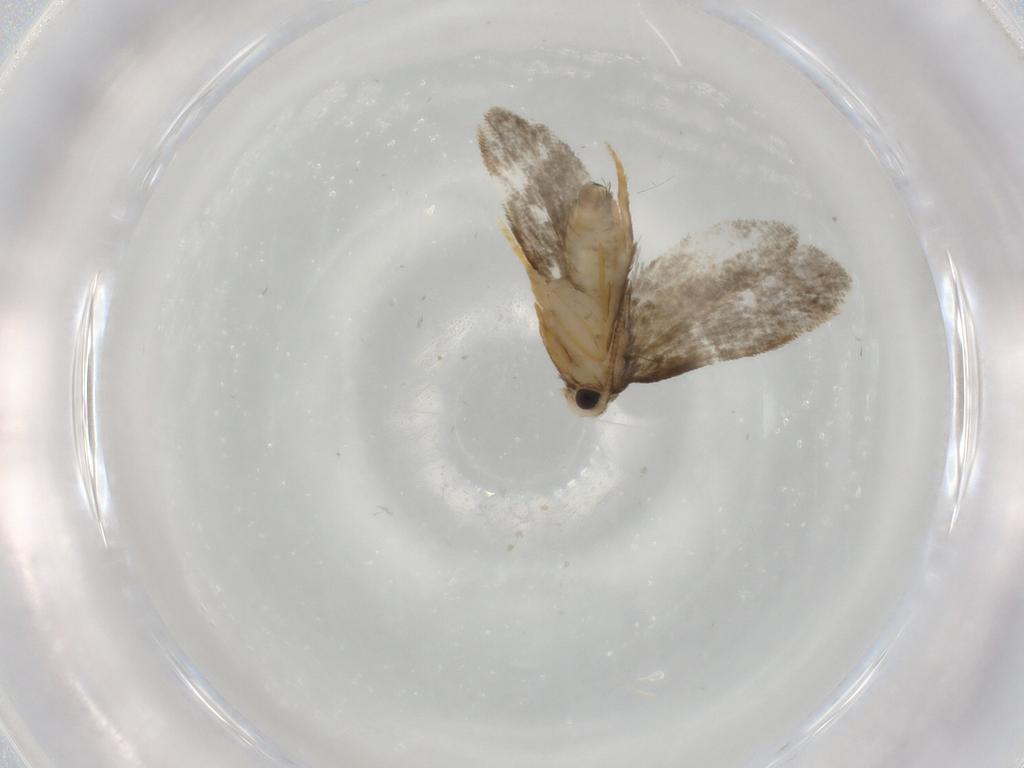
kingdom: Animalia
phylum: Arthropoda
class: Insecta
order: Lepidoptera
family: Psychidae
